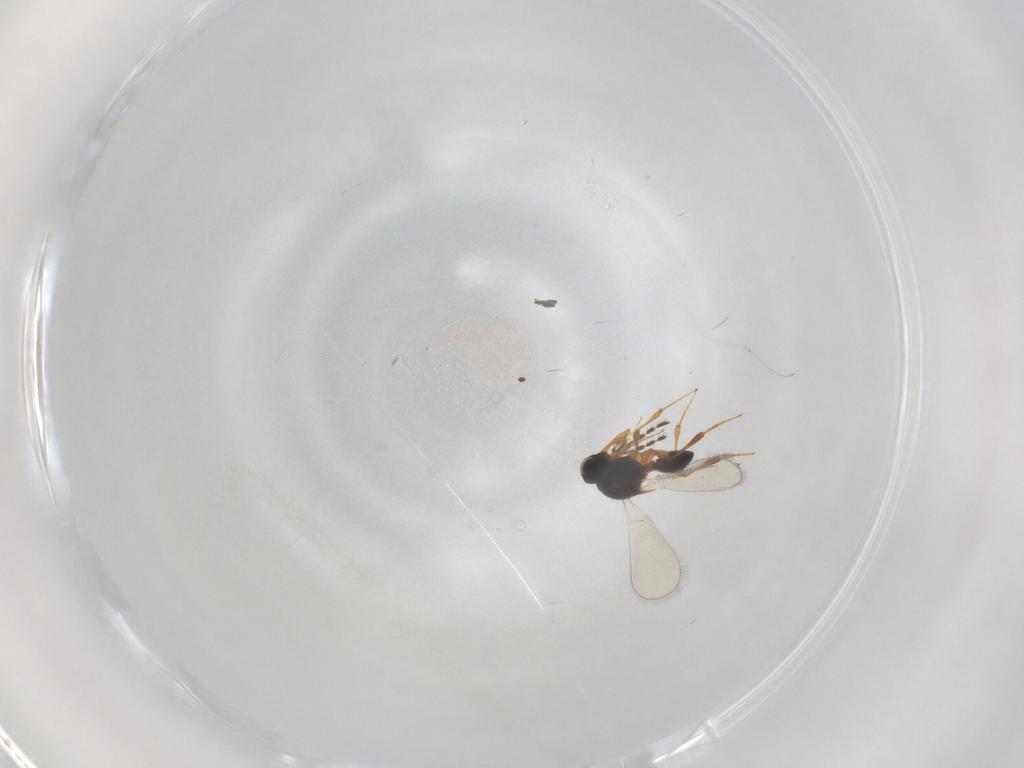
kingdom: Animalia
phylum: Arthropoda
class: Insecta
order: Hymenoptera
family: Platygastridae
